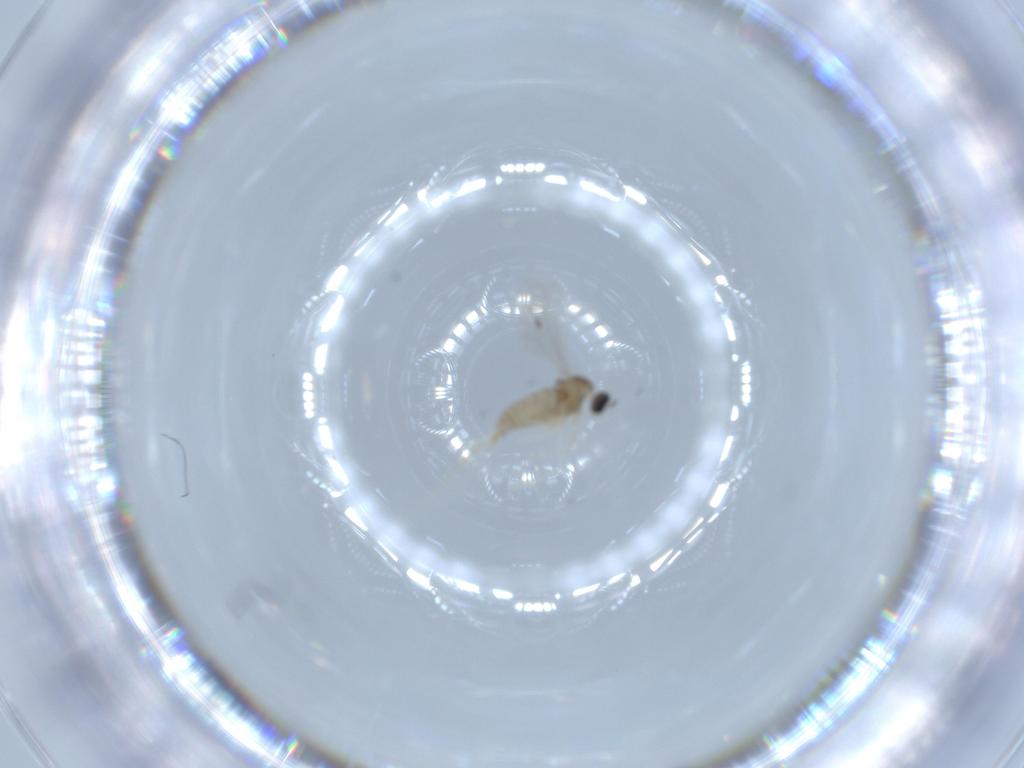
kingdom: Animalia
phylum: Arthropoda
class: Insecta
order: Diptera
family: Cecidomyiidae
